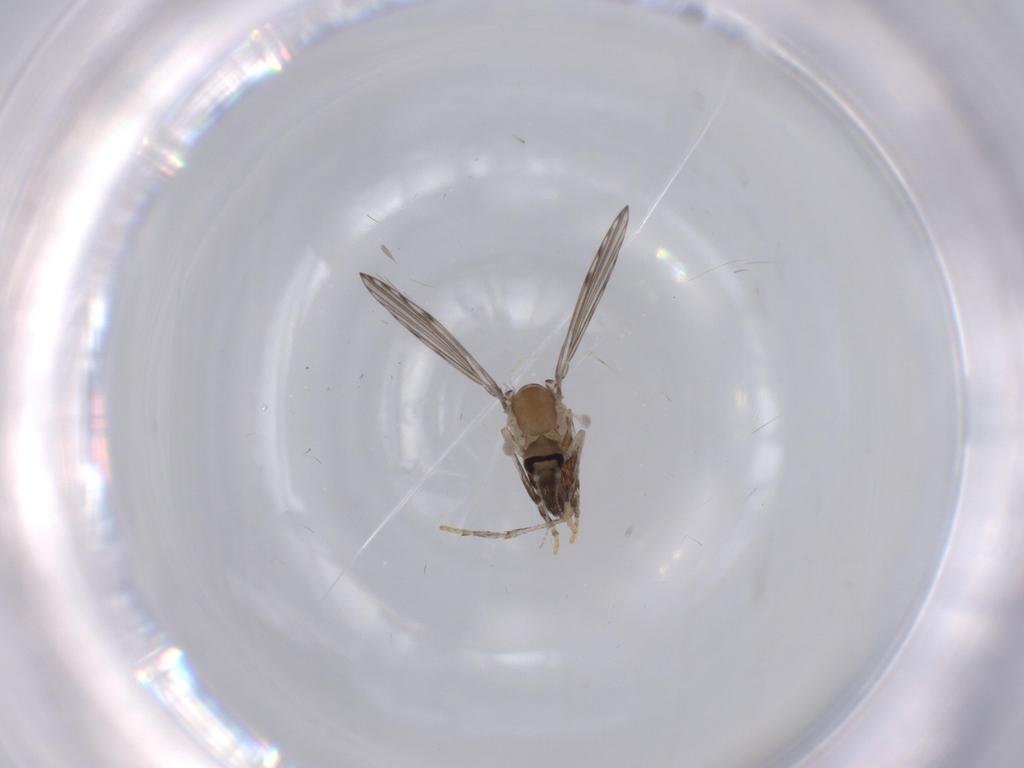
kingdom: Animalia
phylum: Arthropoda
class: Insecta
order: Diptera
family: Psychodidae
